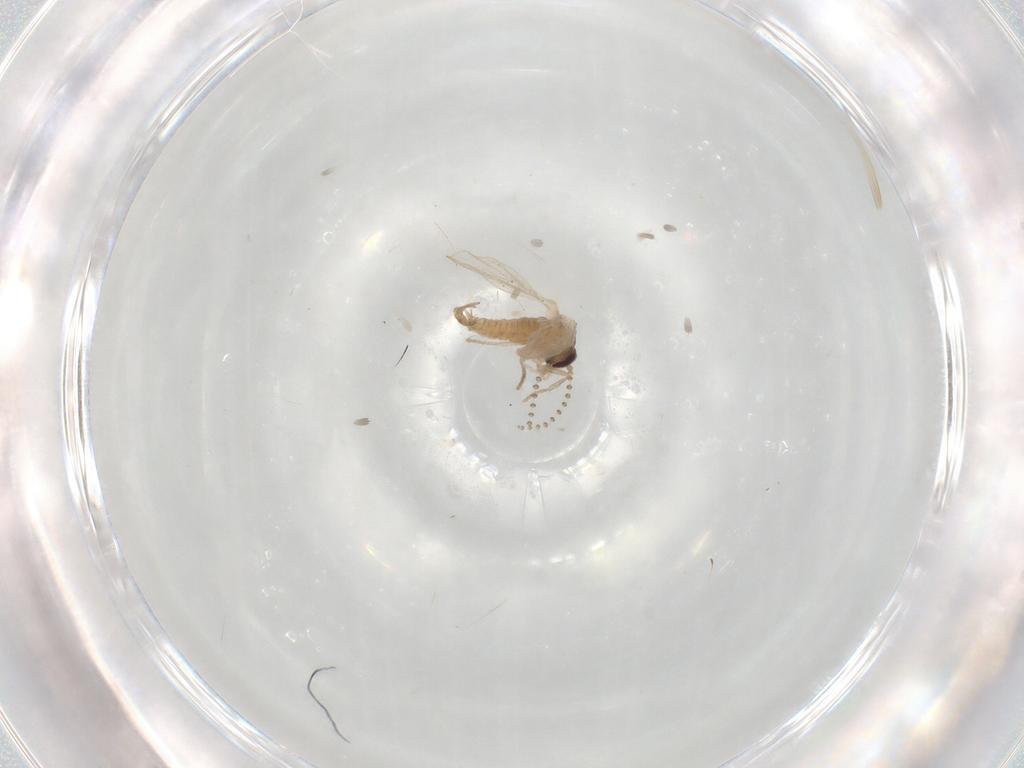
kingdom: Animalia
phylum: Arthropoda
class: Insecta
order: Diptera
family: Psychodidae
